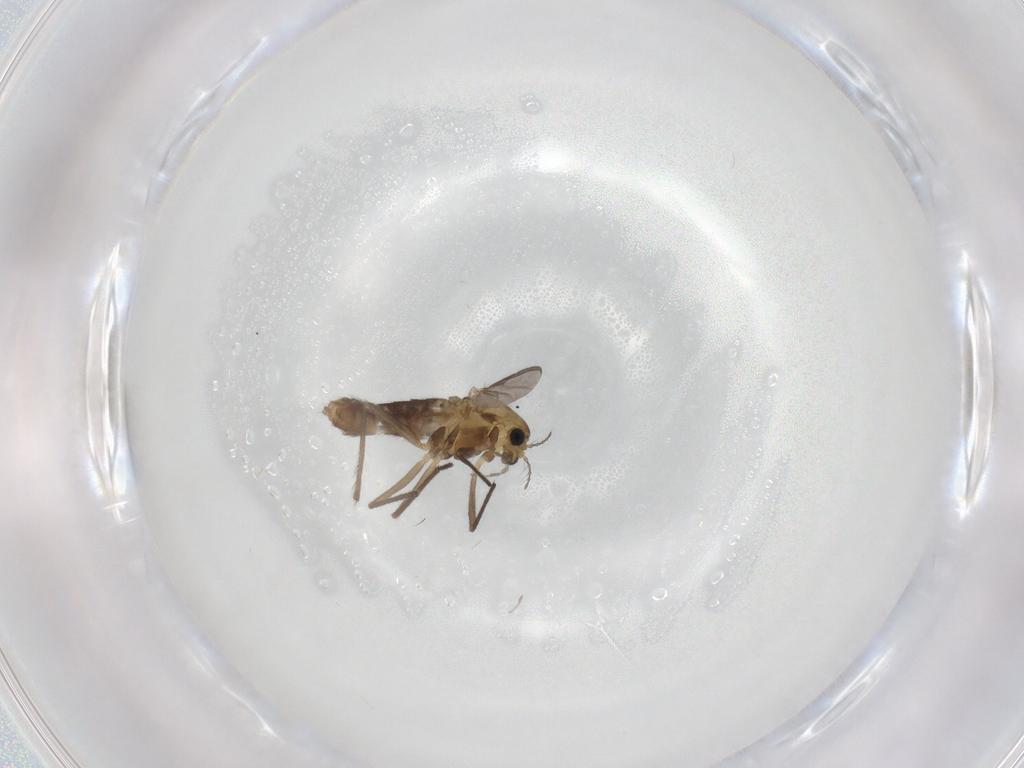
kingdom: Animalia
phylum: Arthropoda
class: Insecta
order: Diptera
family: Chironomidae
